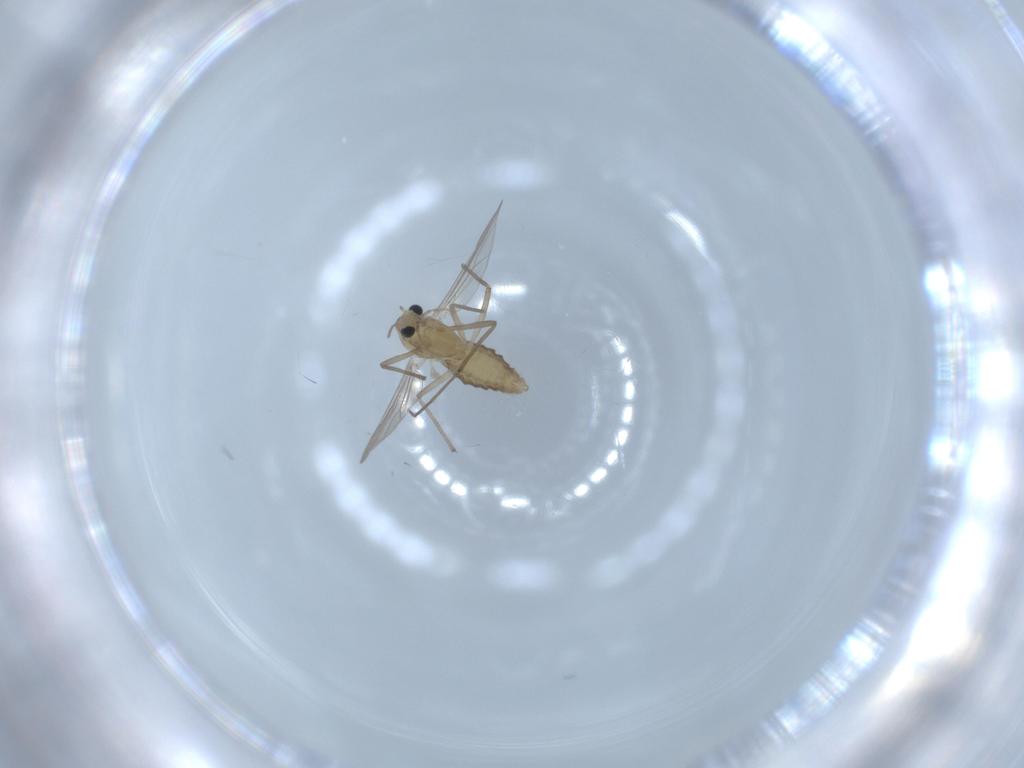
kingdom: Animalia
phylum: Arthropoda
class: Insecta
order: Diptera
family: Chironomidae
